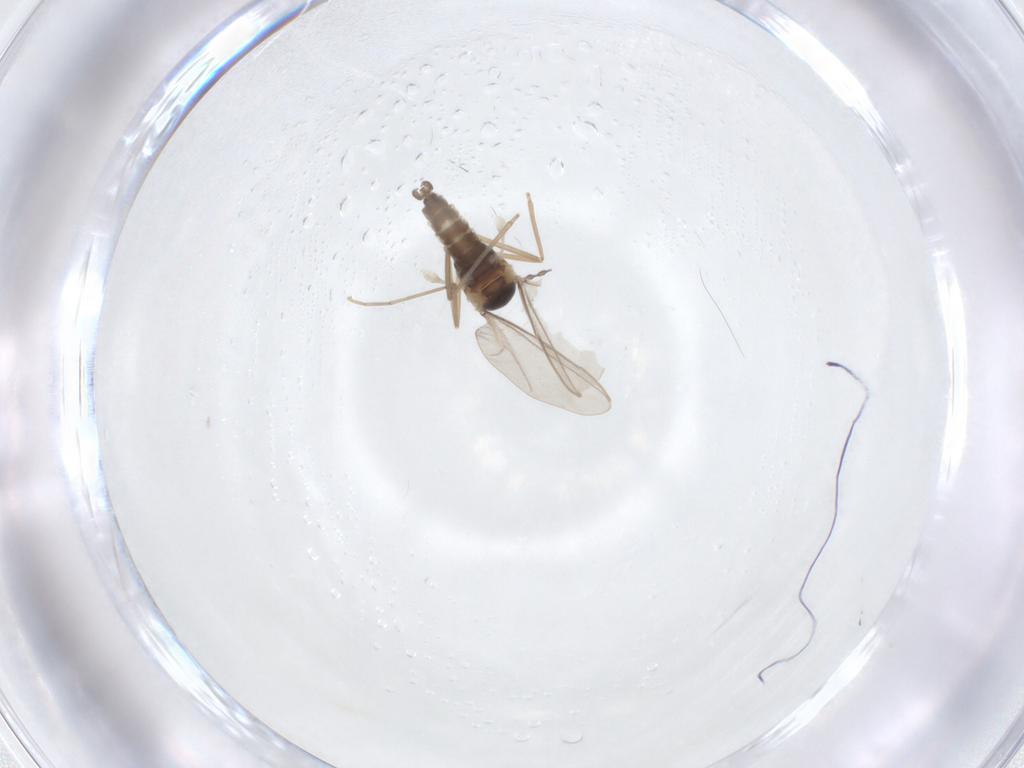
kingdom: Animalia
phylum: Arthropoda
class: Insecta
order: Diptera
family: Cecidomyiidae
